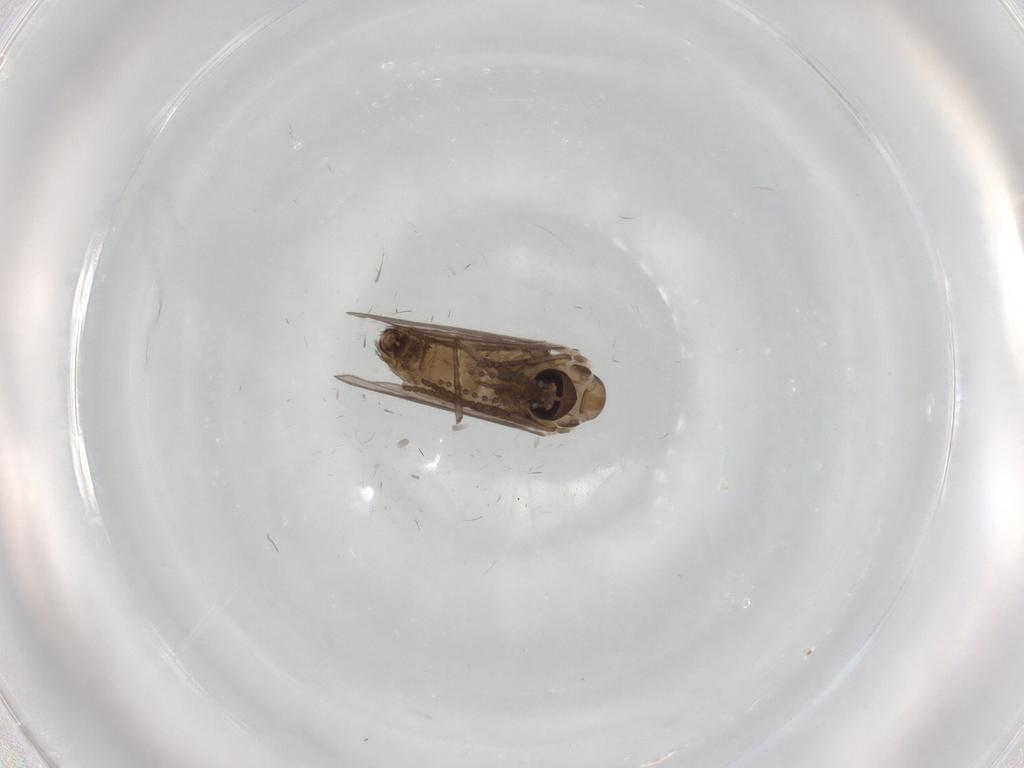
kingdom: Animalia
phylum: Arthropoda
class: Insecta
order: Diptera
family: Psychodidae
